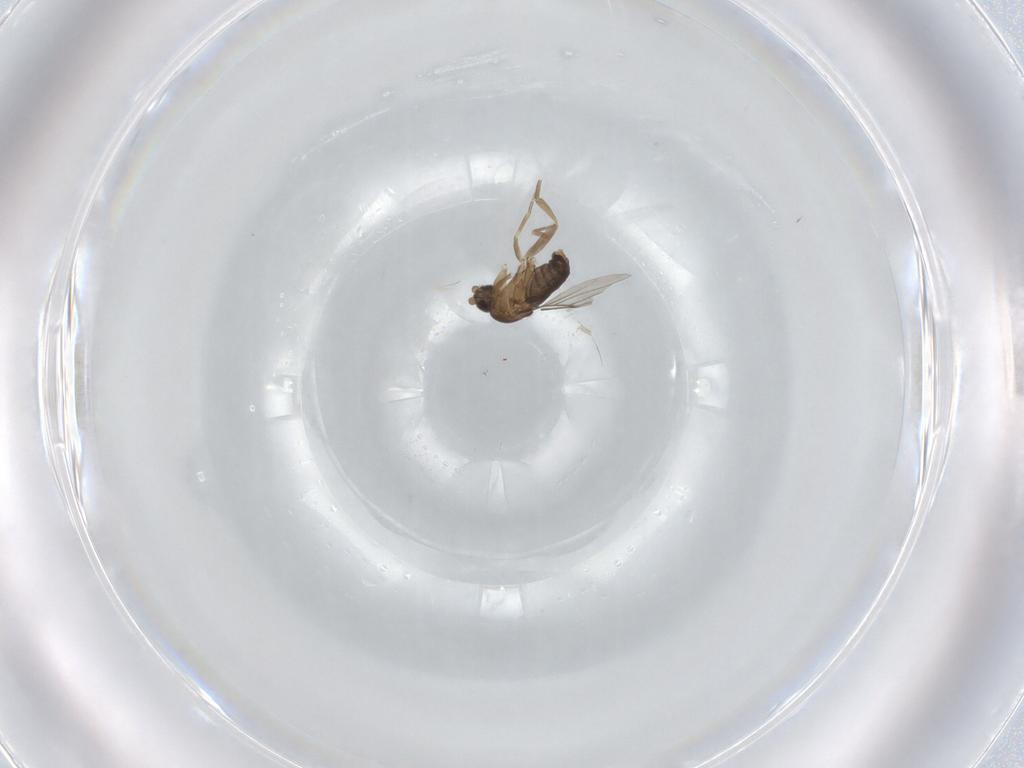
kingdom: Animalia
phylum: Arthropoda
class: Insecta
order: Diptera
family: Phoridae
